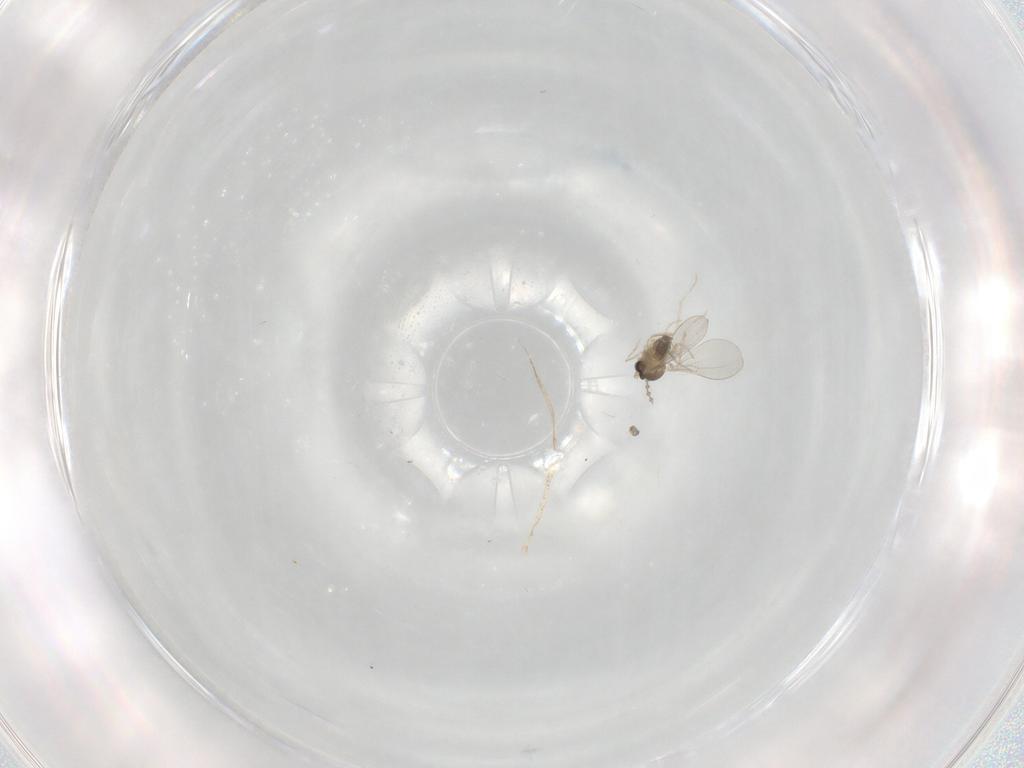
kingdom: Animalia
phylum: Arthropoda
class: Insecta
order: Diptera
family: Cecidomyiidae
